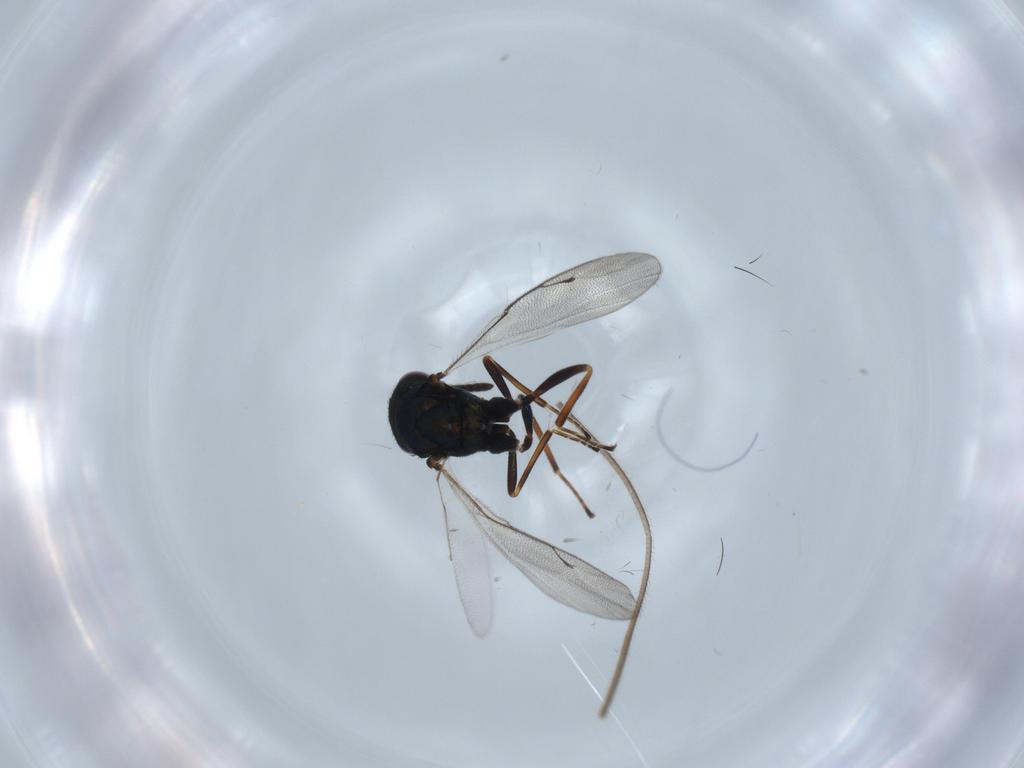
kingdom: Animalia
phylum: Arthropoda
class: Insecta
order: Hymenoptera
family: Pteromalidae
